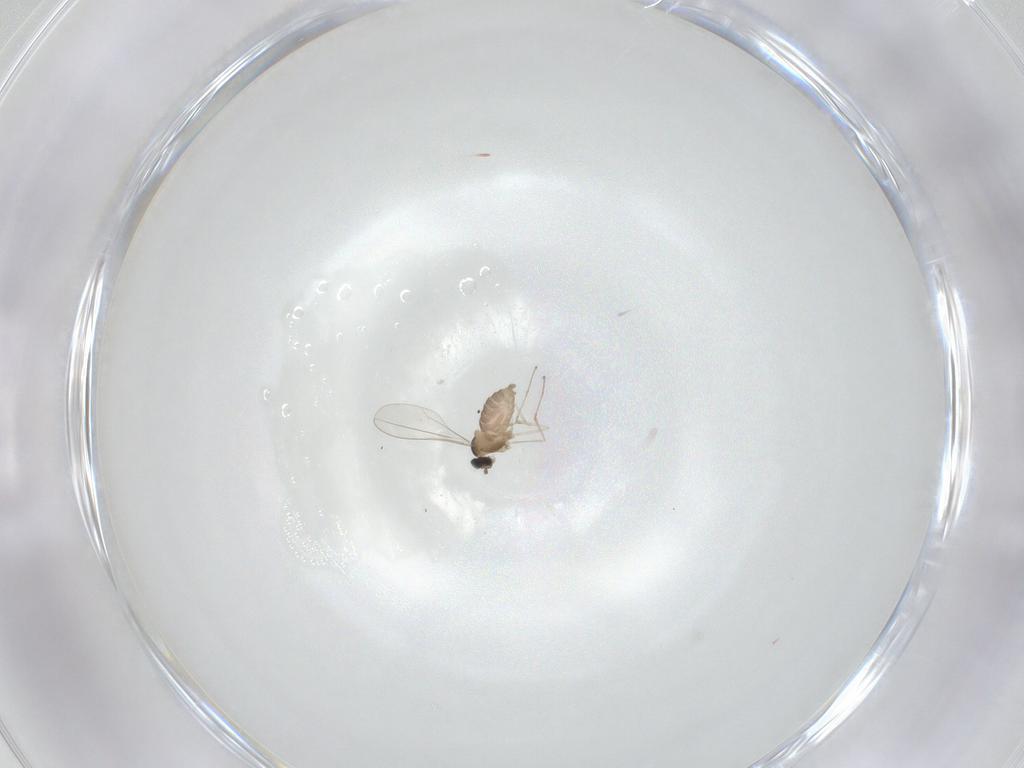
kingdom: Animalia
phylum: Arthropoda
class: Insecta
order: Diptera
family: Cecidomyiidae
